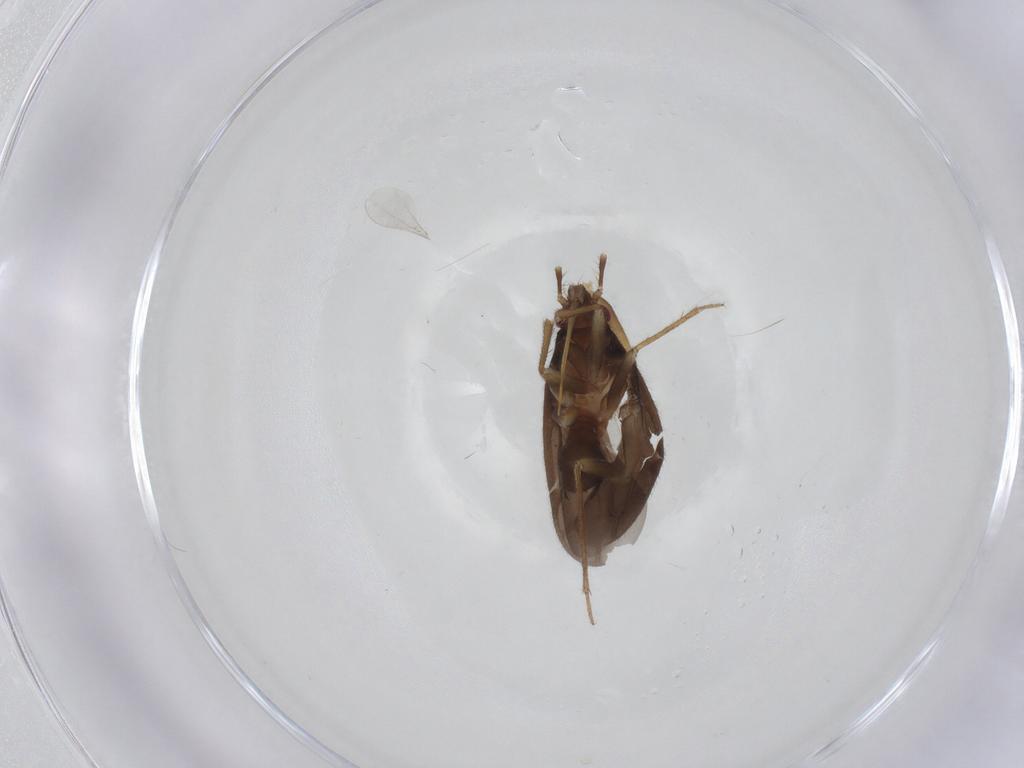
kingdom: Animalia
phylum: Arthropoda
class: Insecta
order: Hemiptera
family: Ceratocombidae
